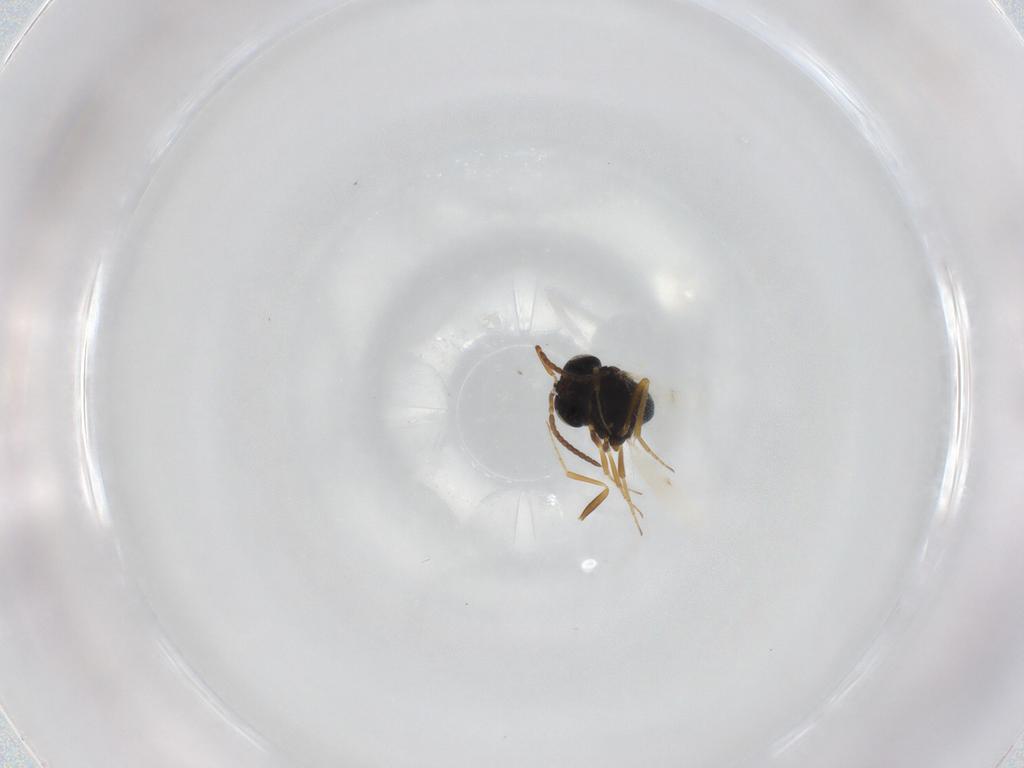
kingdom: Animalia
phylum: Arthropoda
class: Insecta
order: Hymenoptera
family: Scelionidae
